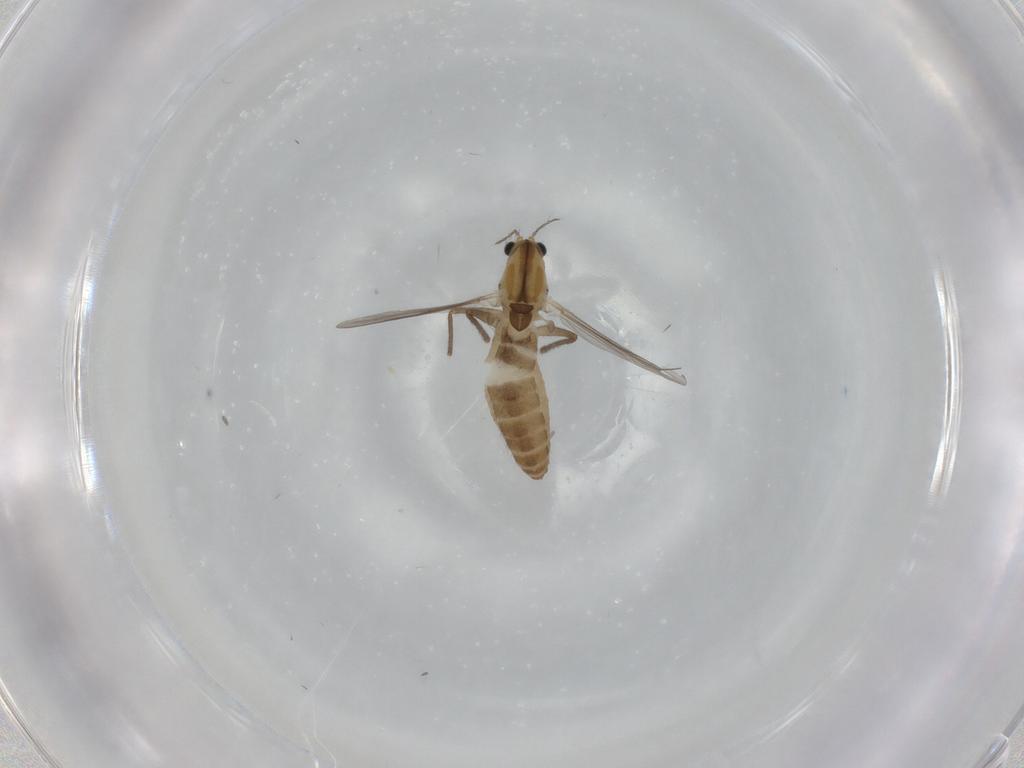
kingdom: Animalia
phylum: Arthropoda
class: Insecta
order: Diptera
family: Chironomidae
